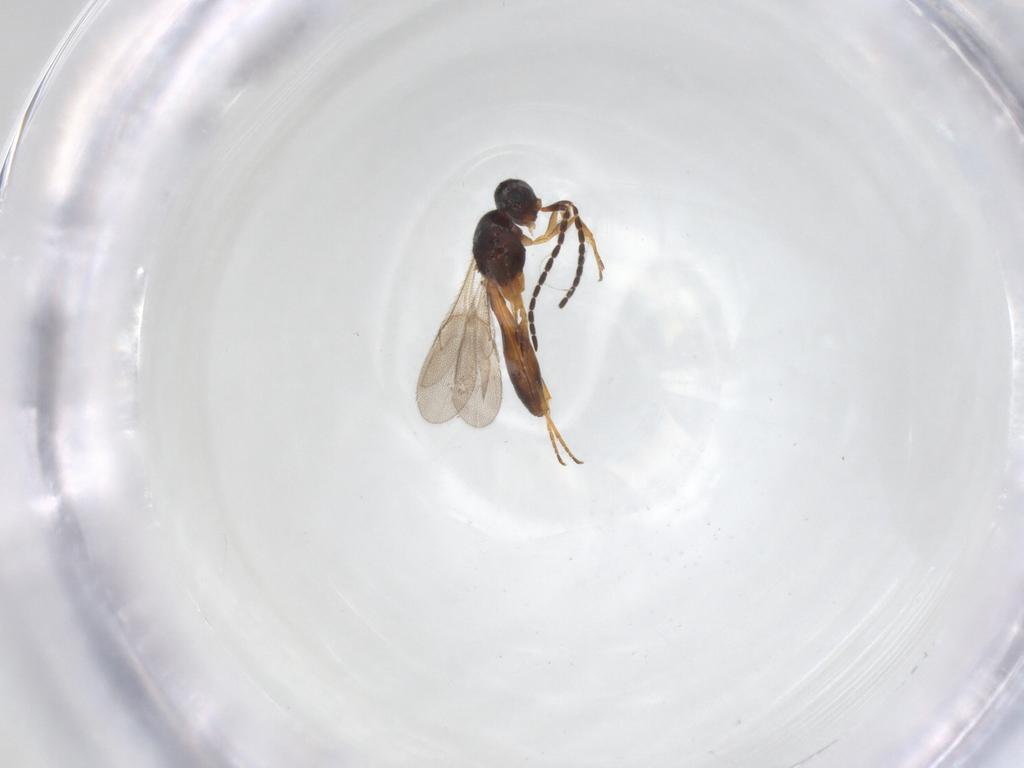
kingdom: Animalia
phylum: Arthropoda
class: Insecta
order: Hymenoptera
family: Scelionidae
